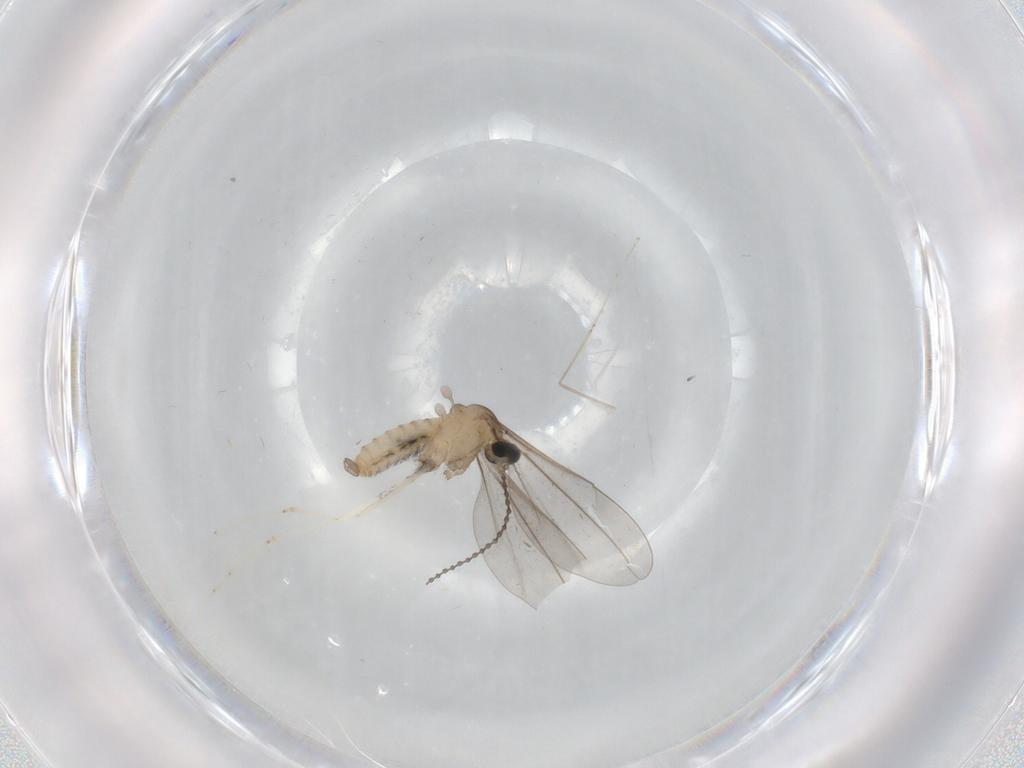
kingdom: Animalia
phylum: Arthropoda
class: Insecta
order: Diptera
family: Cecidomyiidae
